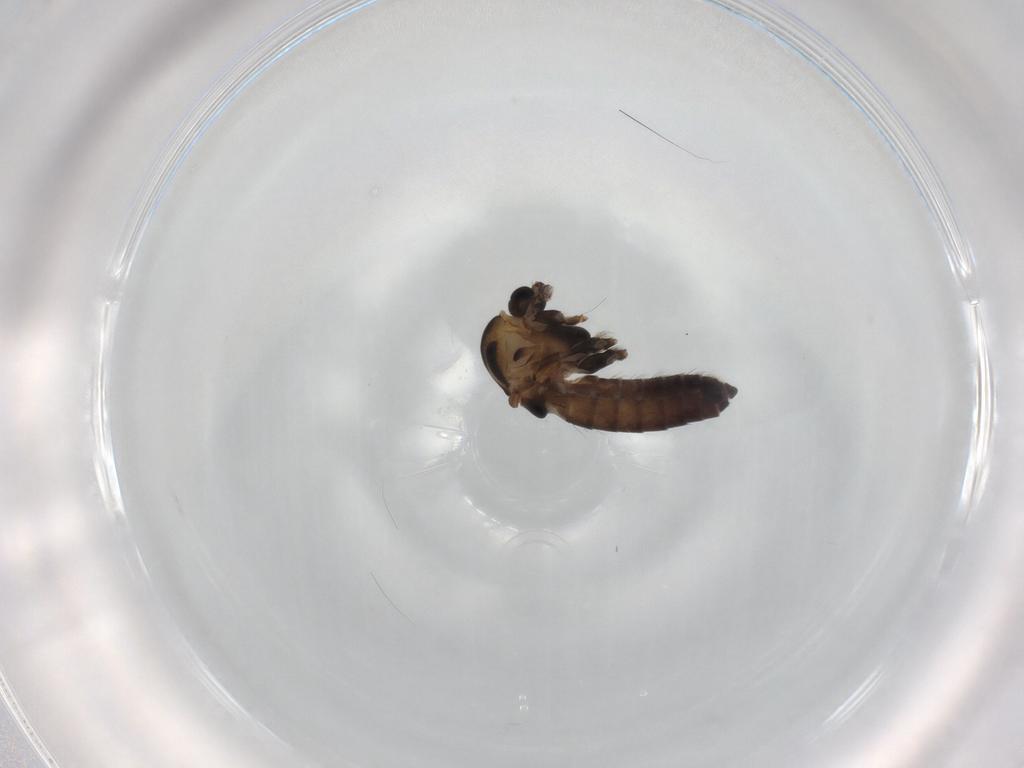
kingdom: Animalia
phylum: Arthropoda
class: Insecta
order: Diptera
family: Chironomidae
